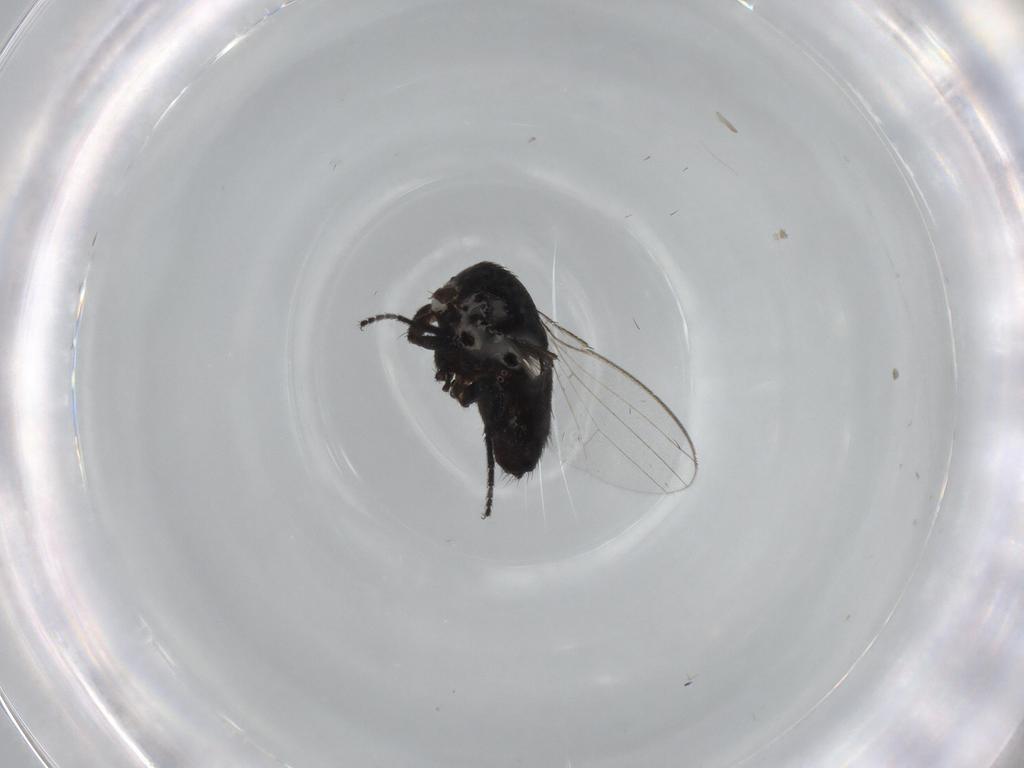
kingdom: Animalia
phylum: Arthropoda
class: Insecta
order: Diptera
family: Milichiidae
